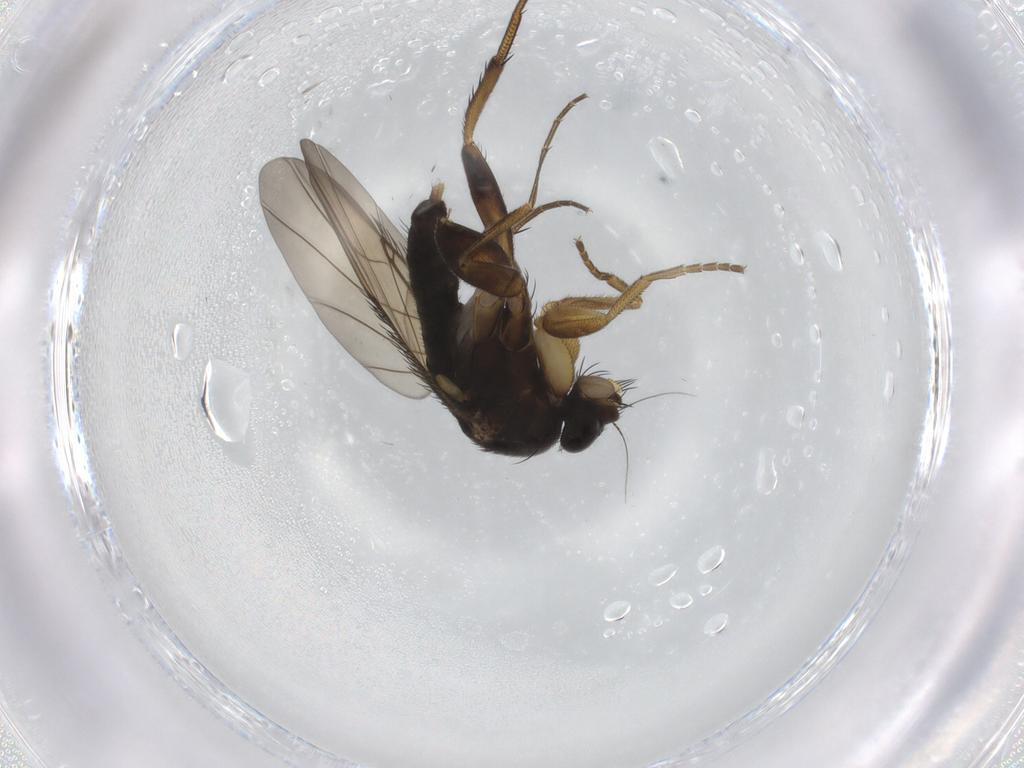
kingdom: Animalia
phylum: Arthropoda
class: Insecta
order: Diptera
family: Phoridae
